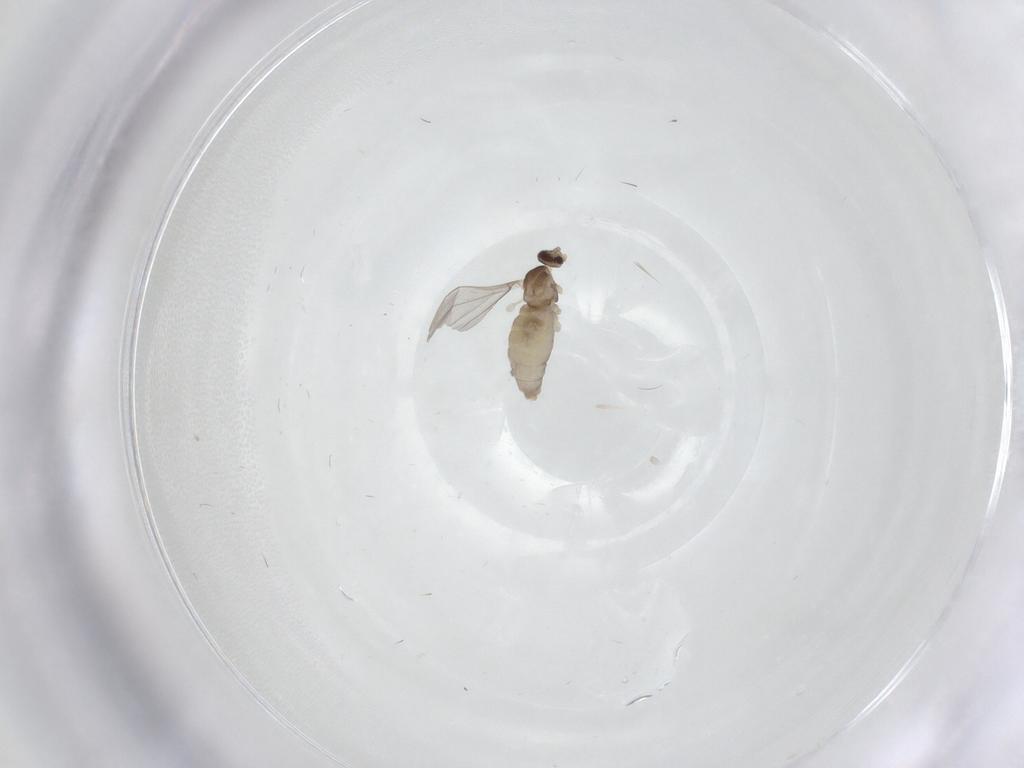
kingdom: Animalia
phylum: Arthropoda
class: Insecta
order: Diptera
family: Cecidomyiidae
